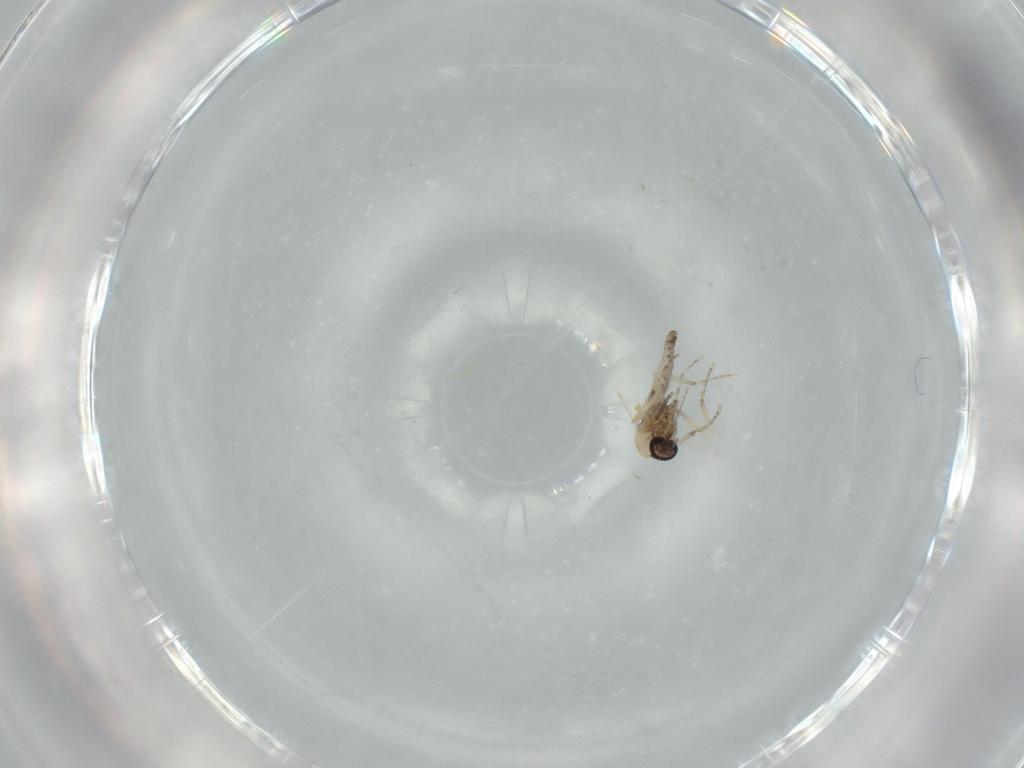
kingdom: Animalia
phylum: Arthropoda
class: Insecta
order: Diptera
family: Ceratopogonidae
